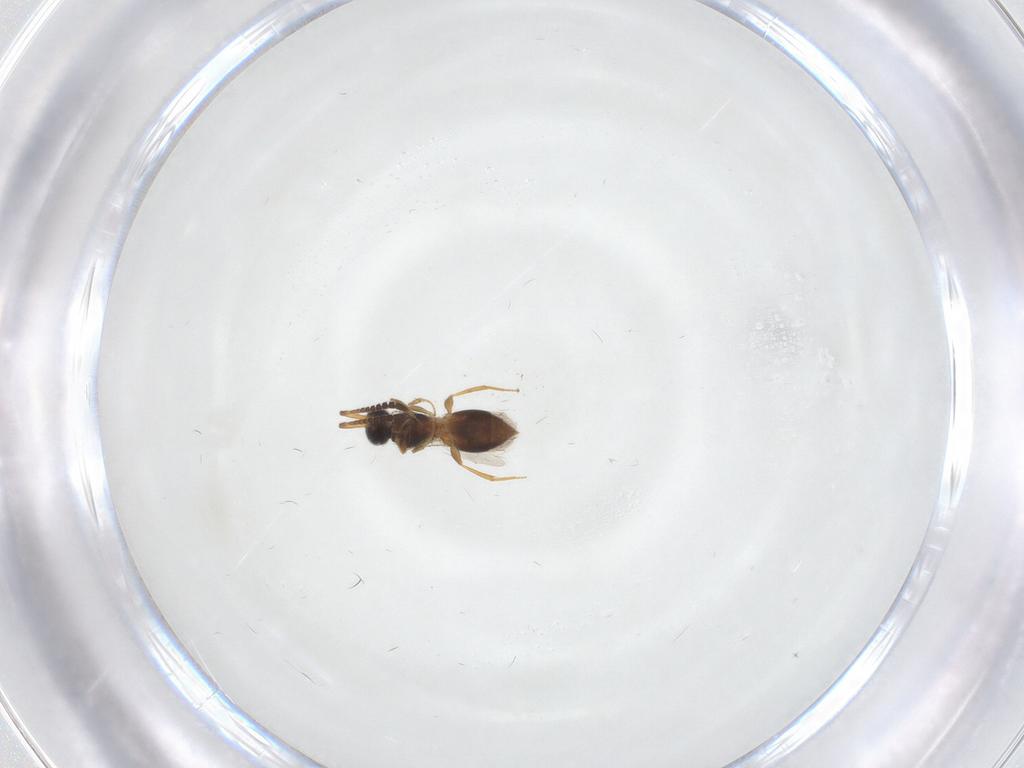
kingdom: Animalia
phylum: Arthropoda
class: Insecta
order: Hymenoptera
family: Megaspilidae
